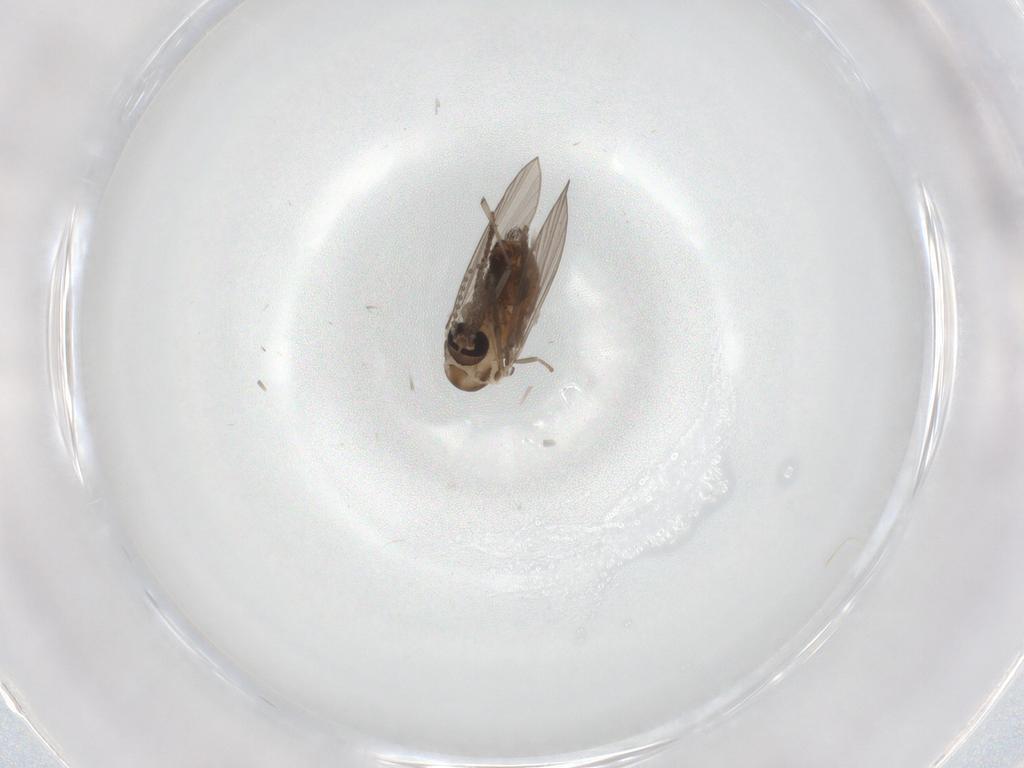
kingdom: Animalia
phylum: Arthropoda
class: Insecta
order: Diptera
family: Psychodidae
